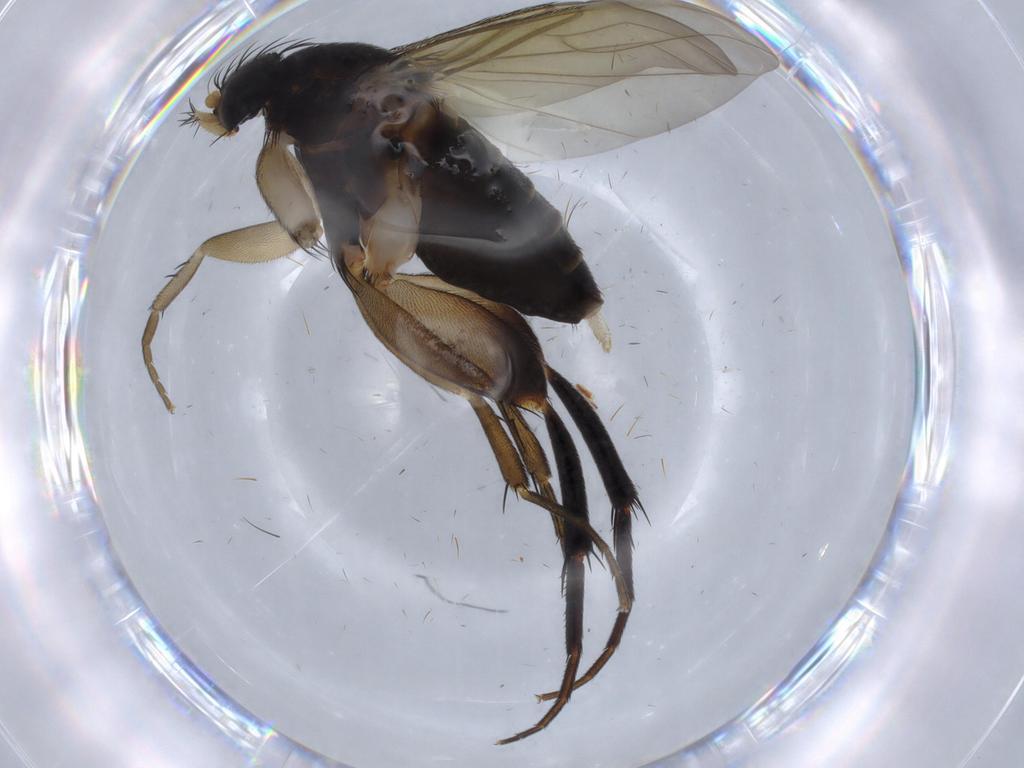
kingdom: Animalia
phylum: Arthropoda
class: Insecta
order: Diptera
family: Phoridae
